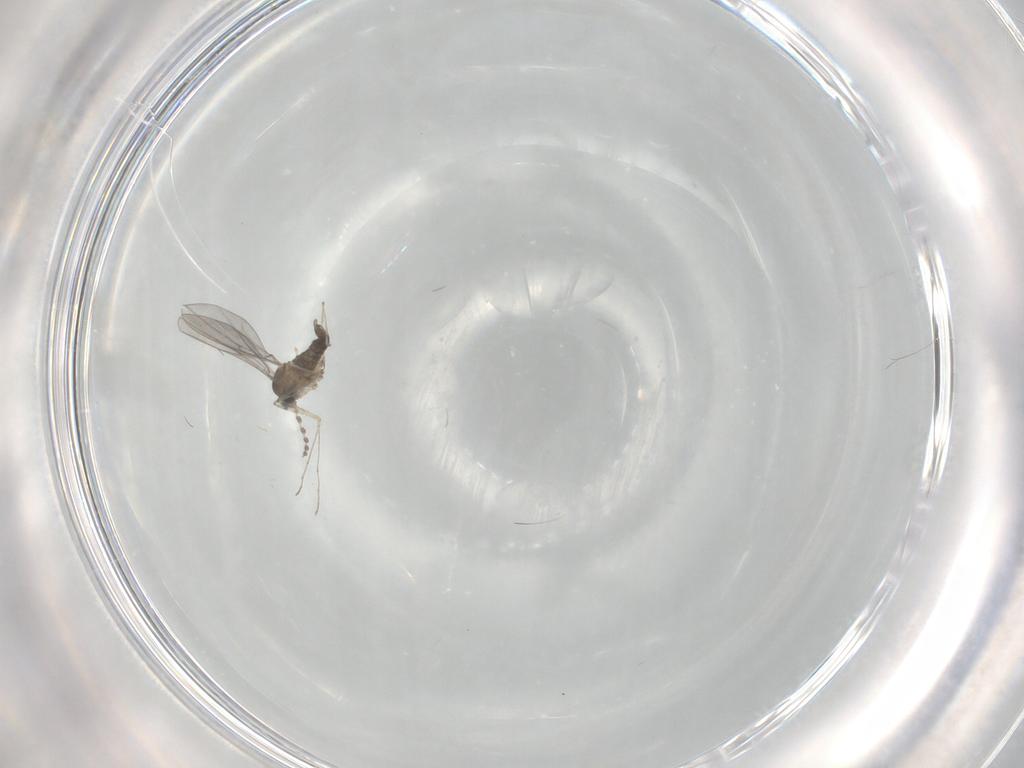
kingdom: Animalia
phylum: Arthropoda
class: Insecta
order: Diptera
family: Cecidomyiidae
